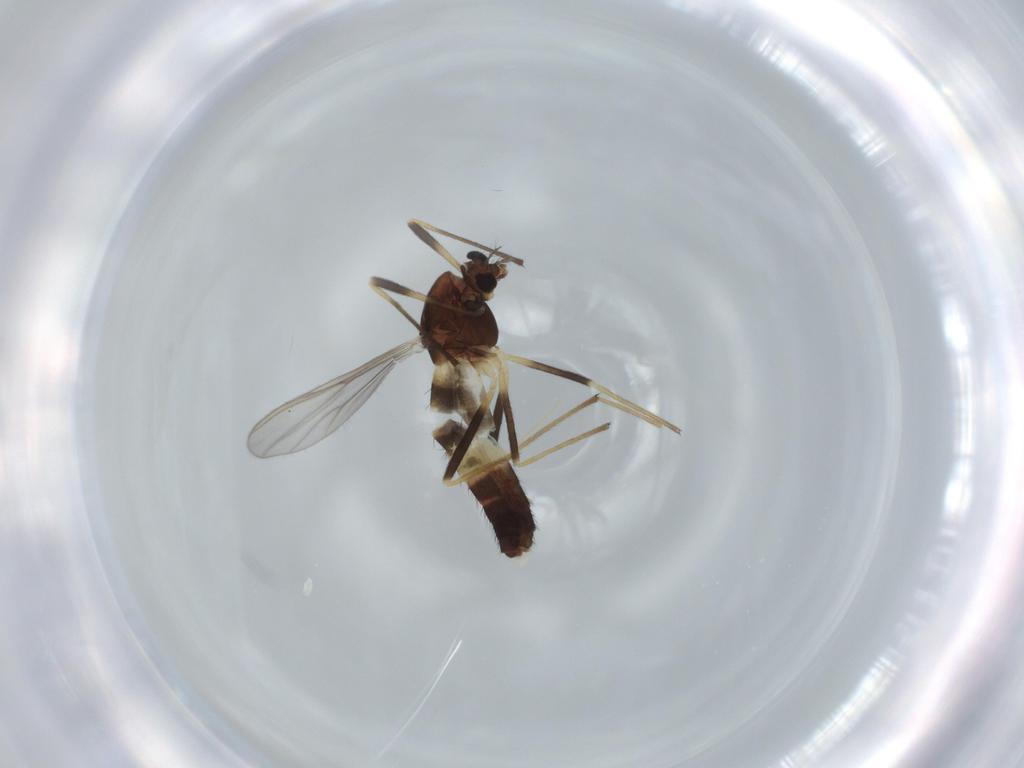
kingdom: Animalia
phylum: Arthropoda
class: Insecta
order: Diptera
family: Chironomidae
